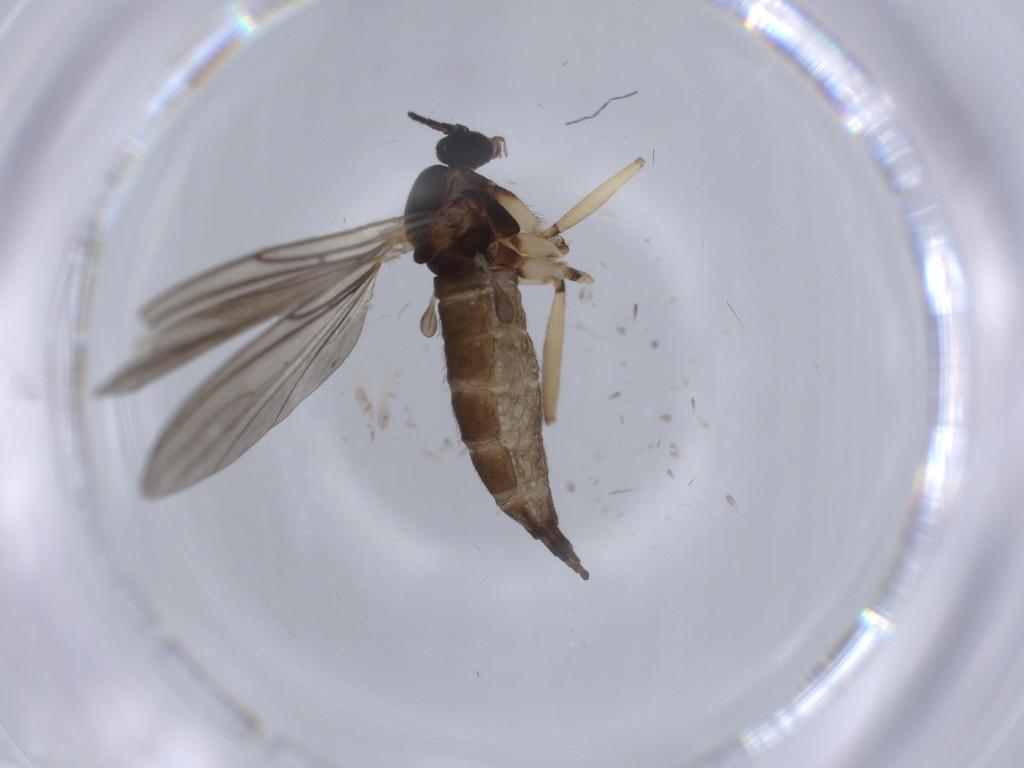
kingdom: Animalia
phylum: Arthropoda
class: Insecta
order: Diptera
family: Sciaridae
